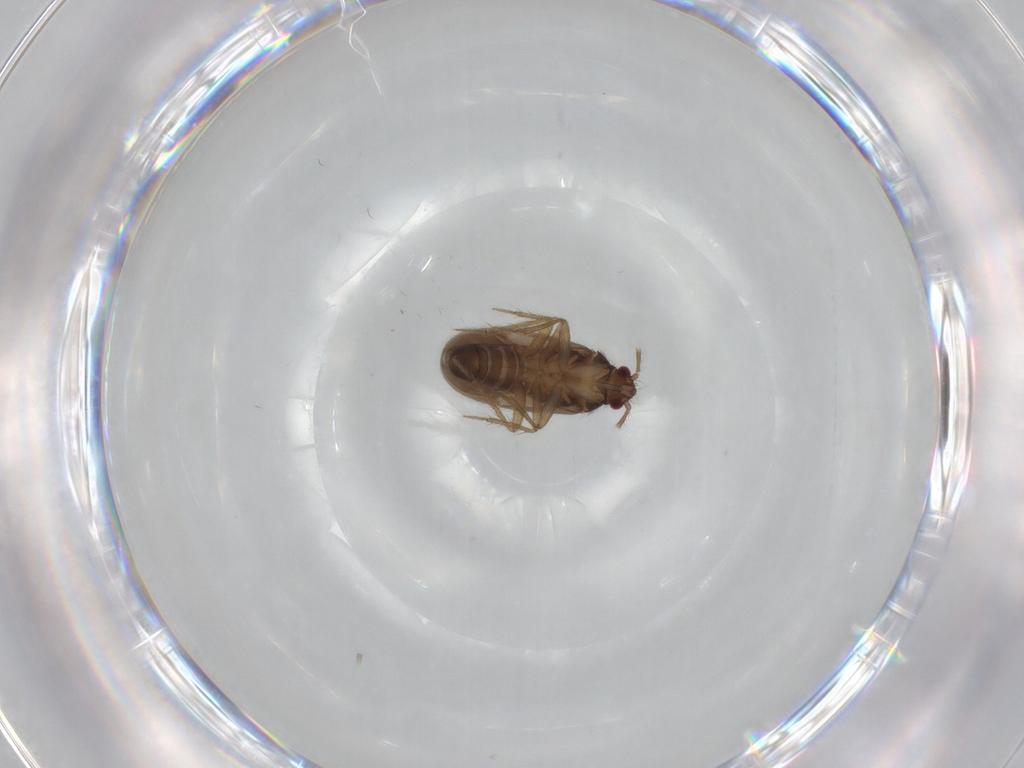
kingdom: Animalia
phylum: Arthropoda
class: Insecta
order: Hemiptera
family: Ceratocombidae
